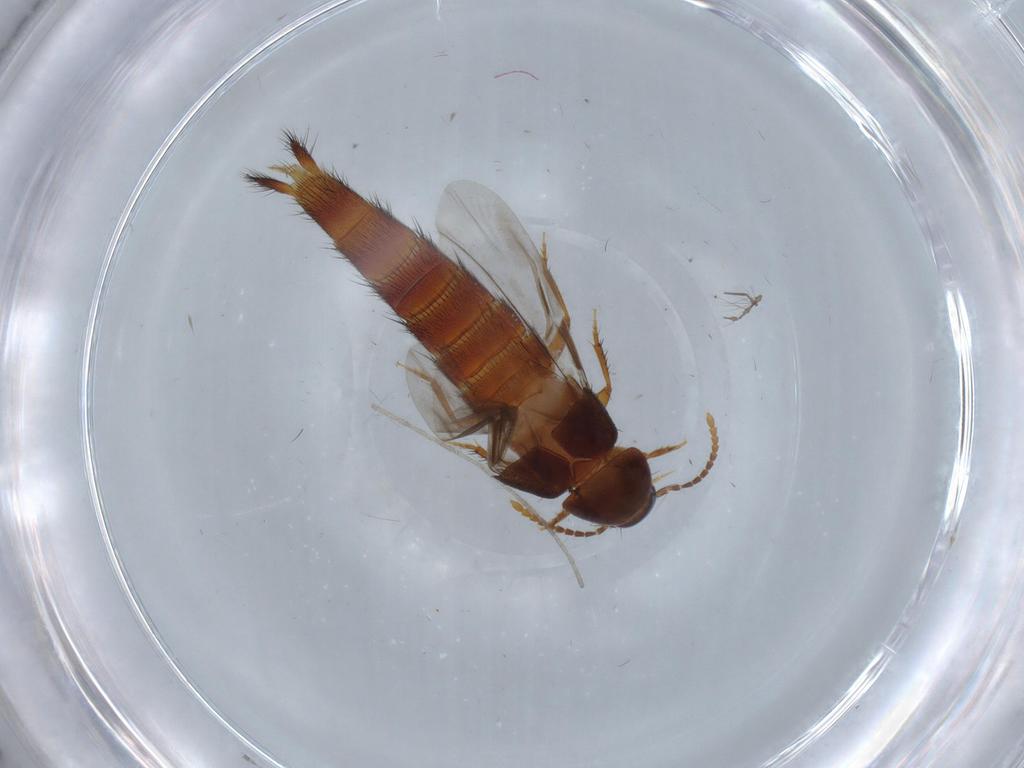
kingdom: Animalia
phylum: Arthropoda
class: Insecta
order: Coleoptera
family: Staphylinidae
